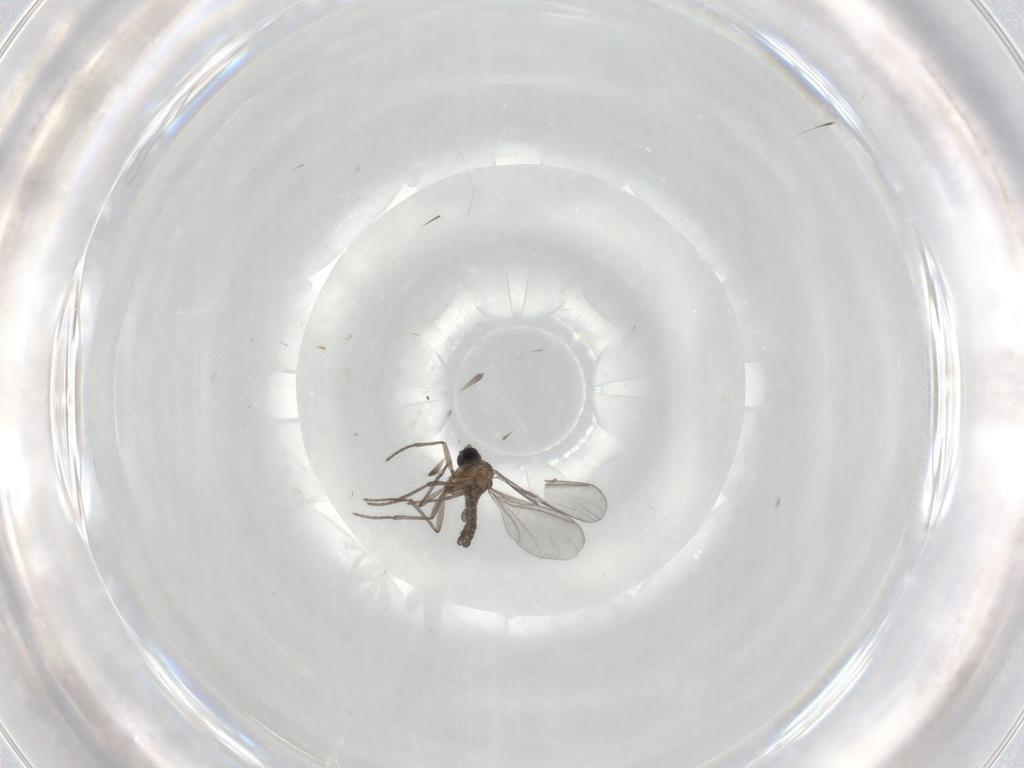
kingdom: Animalia
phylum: Arthropoda
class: Insecta
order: Diptera
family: Sciaridae
